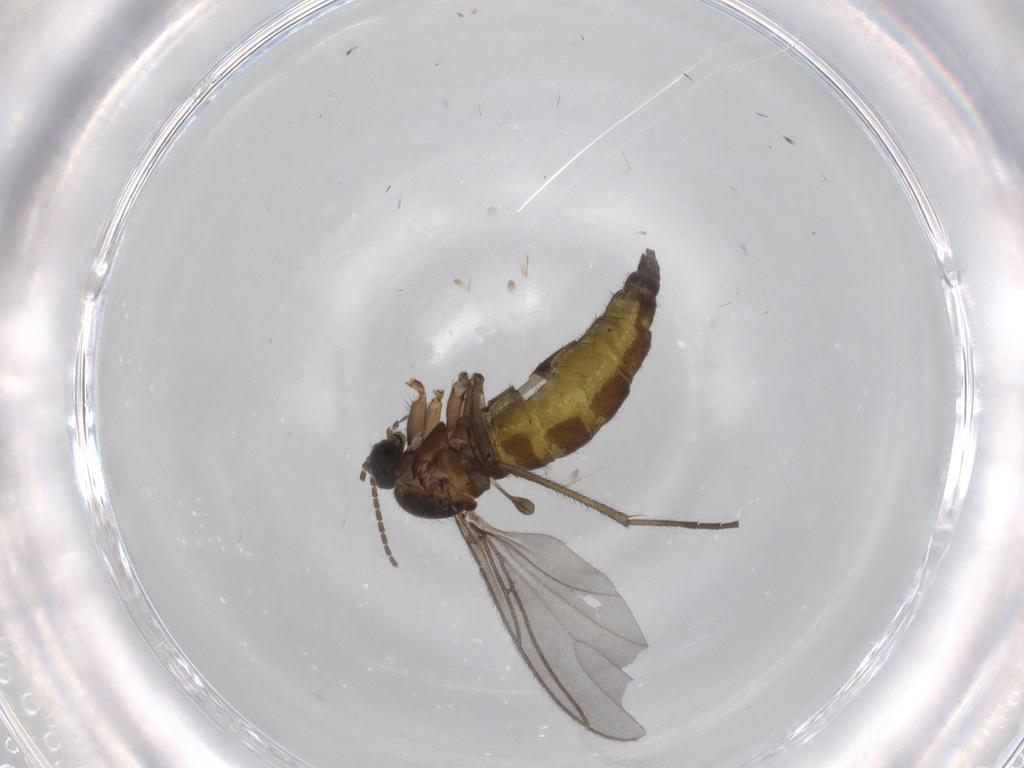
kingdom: Animalia
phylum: Arthropoda
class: Insecta
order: Diptera
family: Sciaridae
